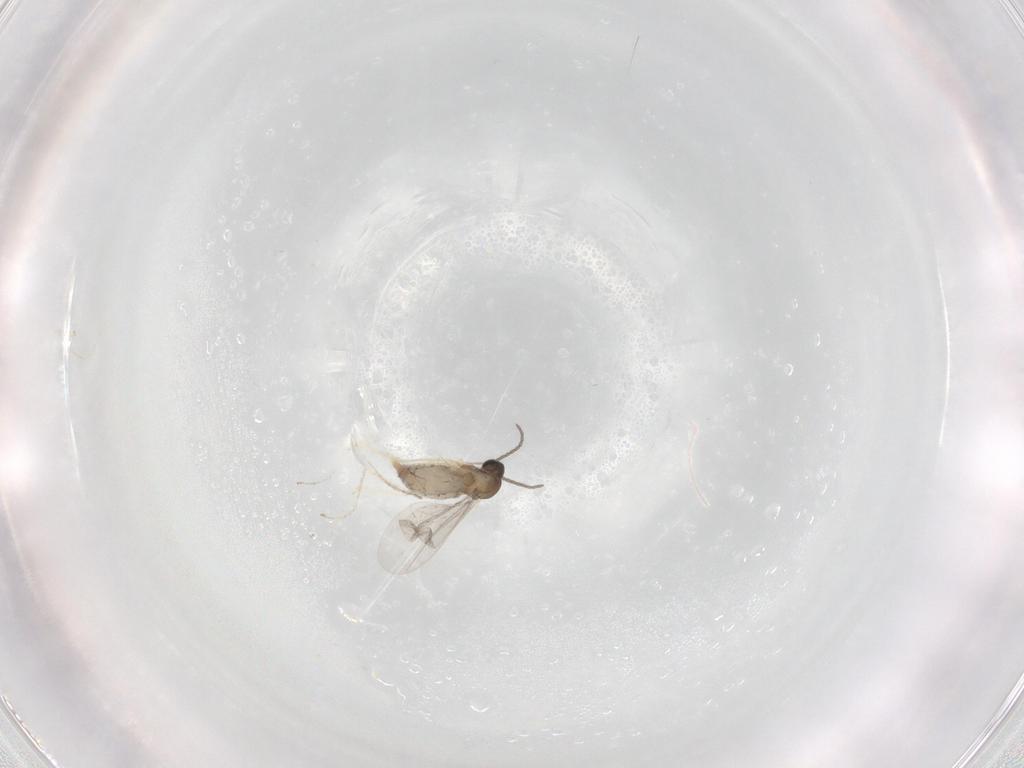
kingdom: Animalia
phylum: Arthropoda
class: Insecta
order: Diptera
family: Cecidomyiidae
